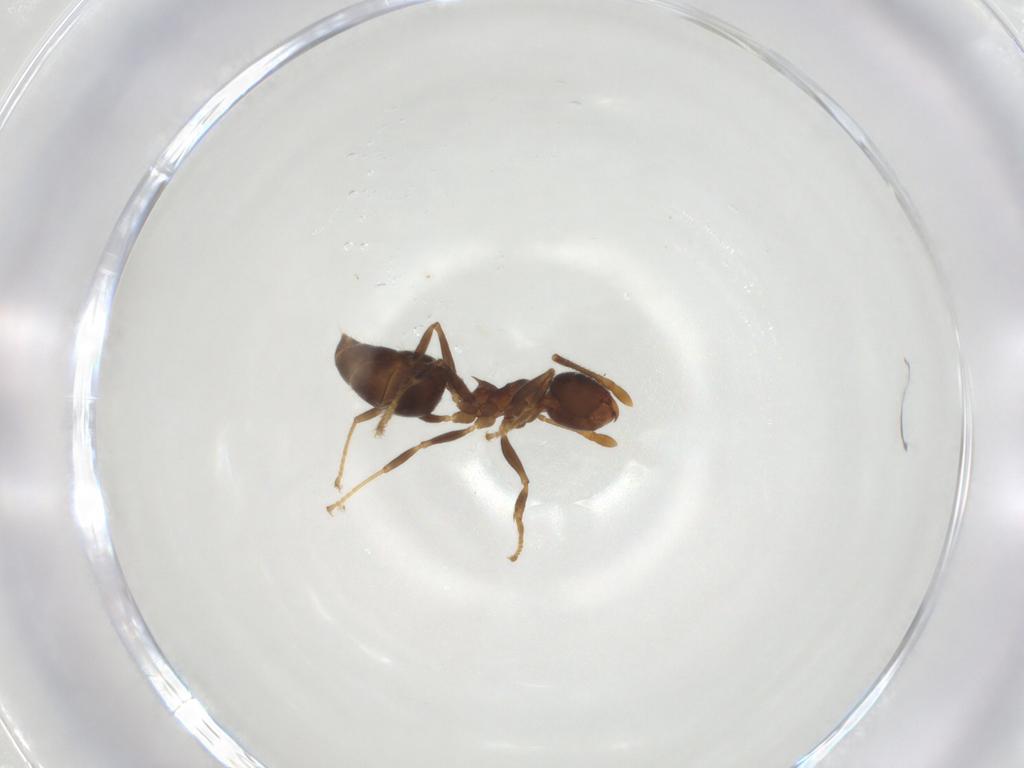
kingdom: Animalia
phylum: Arthropoda
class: Insecta
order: Hymenoptera
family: Formicidae
